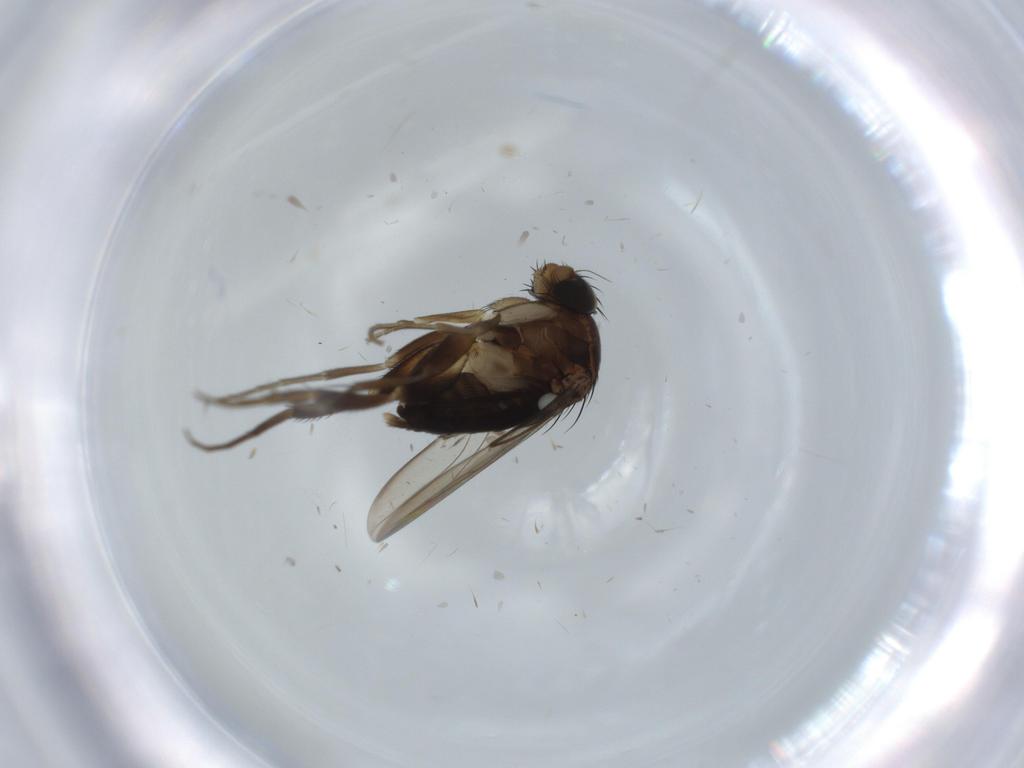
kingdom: Animalia
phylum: Arthropoda
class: Insecta
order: Diptera
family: Phoridae
